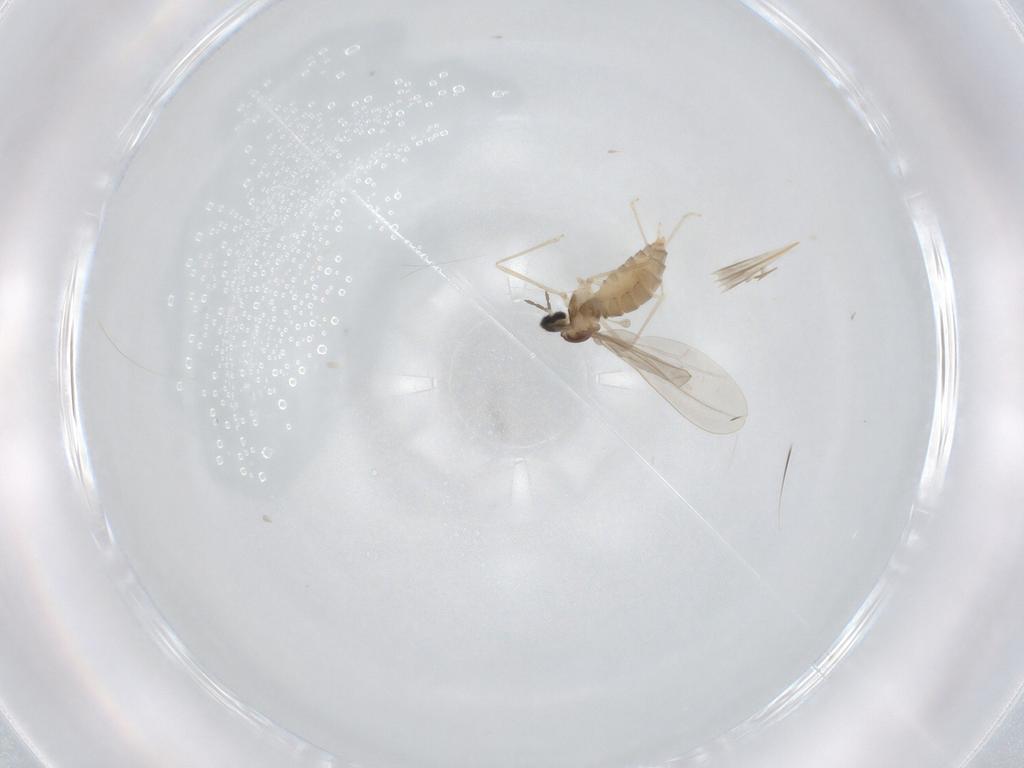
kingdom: Animalia
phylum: Arthropoda
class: Insecta
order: Diptera
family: Cecidomyiidae
